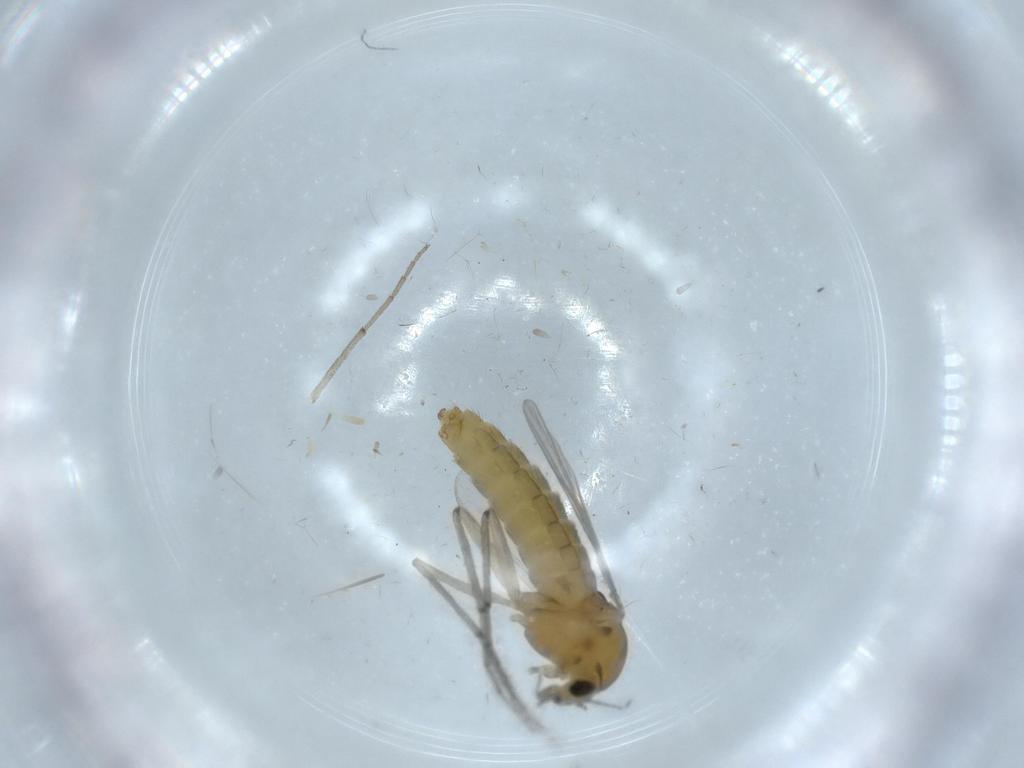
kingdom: Animalia
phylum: Arthropoda
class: Insecta
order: Diptera
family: Chironomidae
